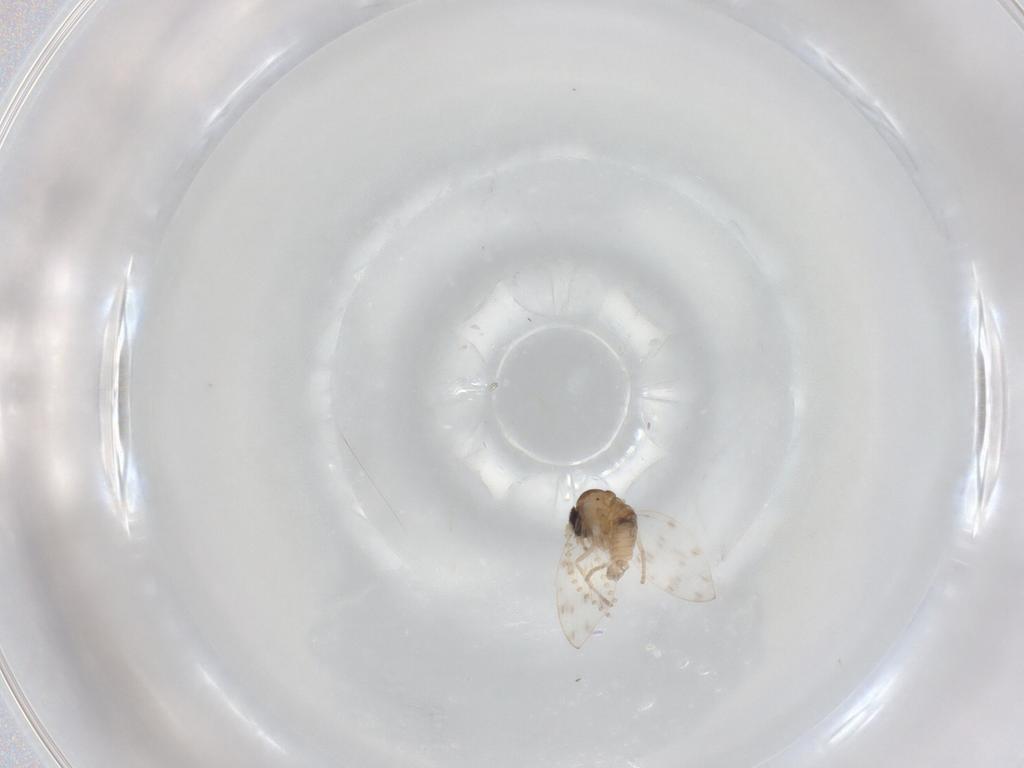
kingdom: Animalia
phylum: Arthropoda
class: Insecta
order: Diptera
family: Psychodidae
